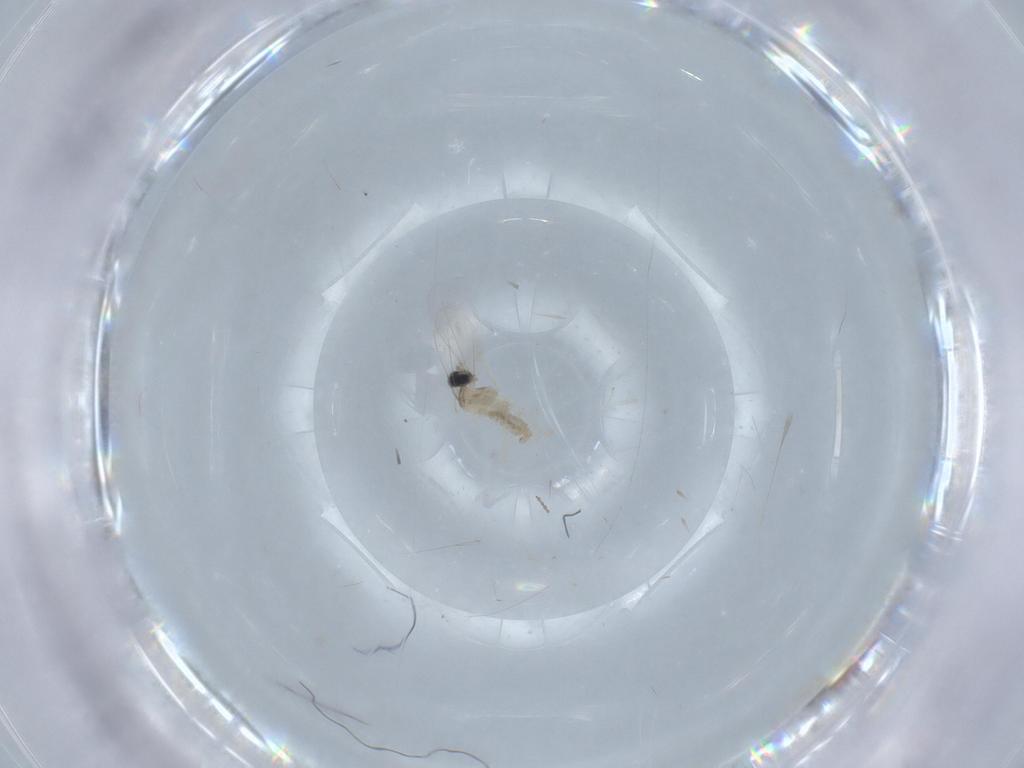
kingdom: Animalia
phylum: Arthropoda
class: Insecta
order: Diptera
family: Cecidomyiidae
